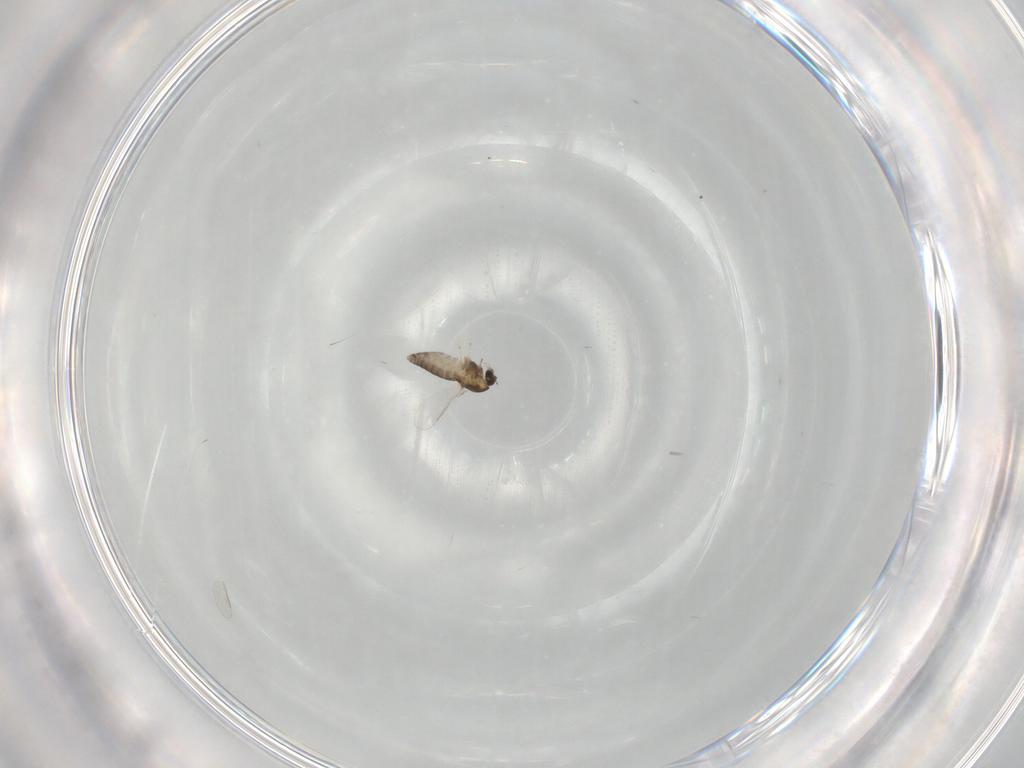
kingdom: Animalia
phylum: Arthropoda
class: Insecta
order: Diptera
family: Chironomidae
